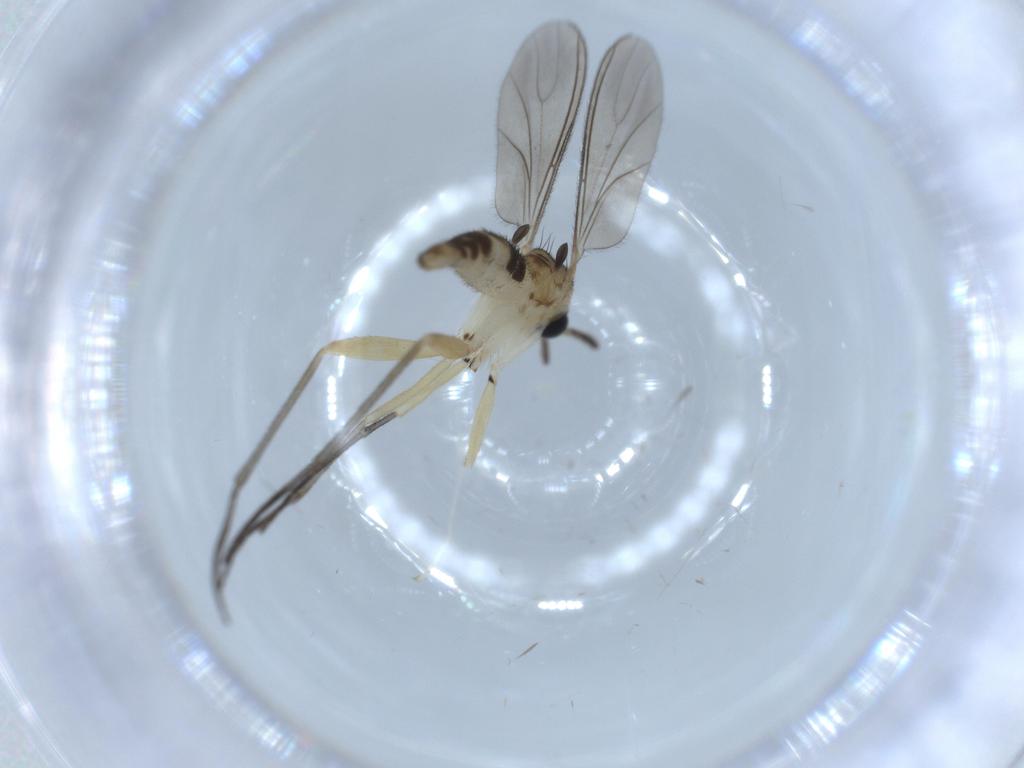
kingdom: Animalia
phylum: Arthropoda
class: Insecta
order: Diptera
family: Sciaridae
